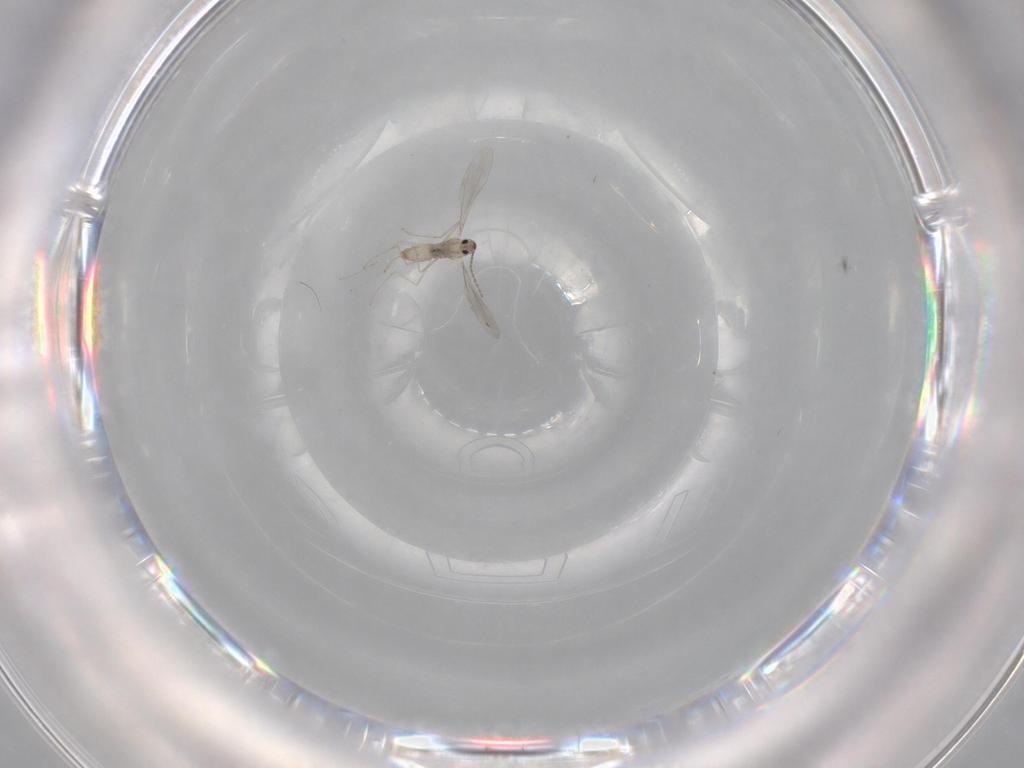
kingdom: Animalia
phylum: Arthropoda
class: Insecta
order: Diptera
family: Cecidomyiidae
